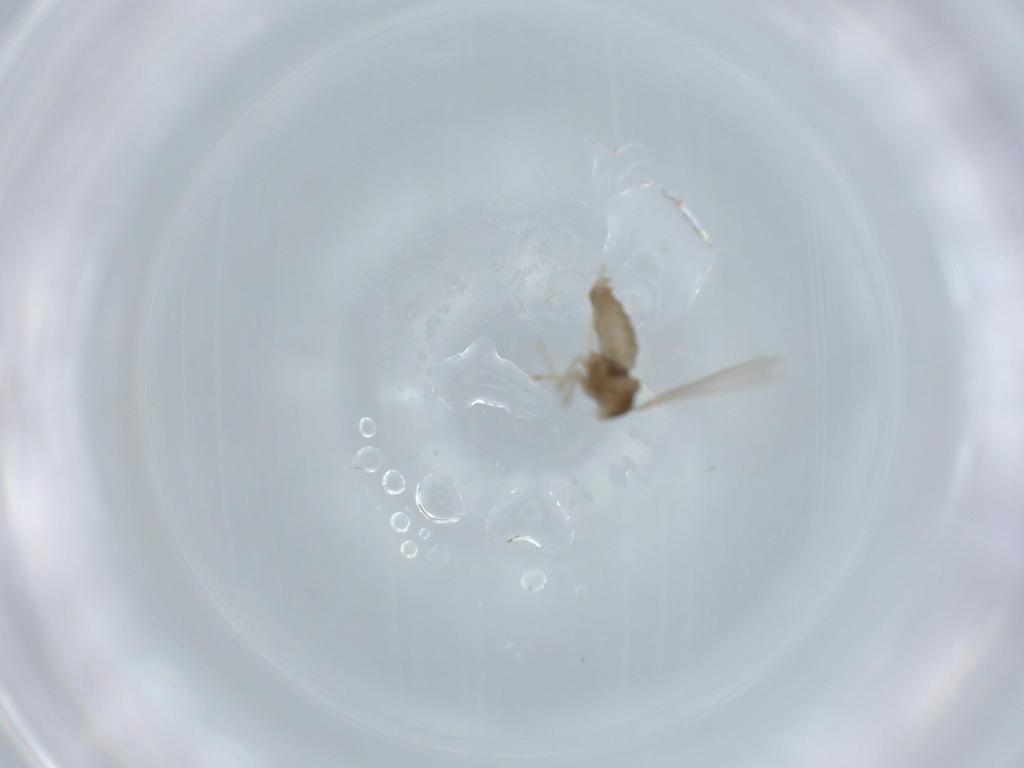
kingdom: Animalia
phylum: Arthropoda
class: Insecta
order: Diptera
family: Cecidomyiidae
